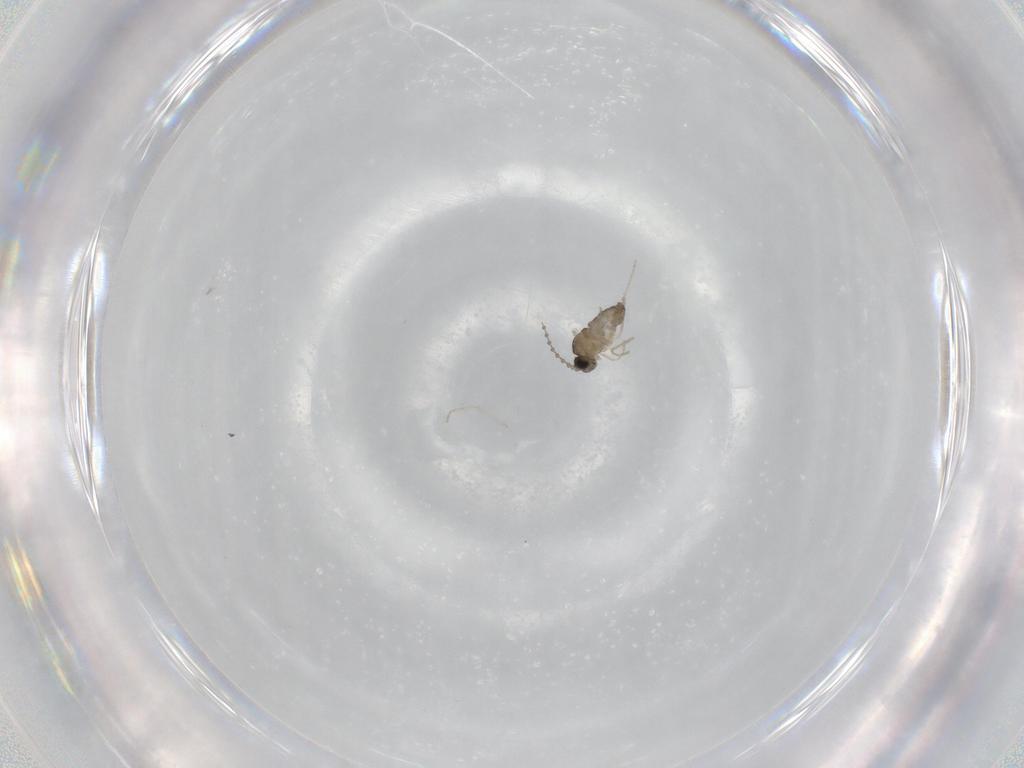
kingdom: Animalia
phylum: Arthropoda
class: Insecta
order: Diptera
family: Cecidomyiidae
